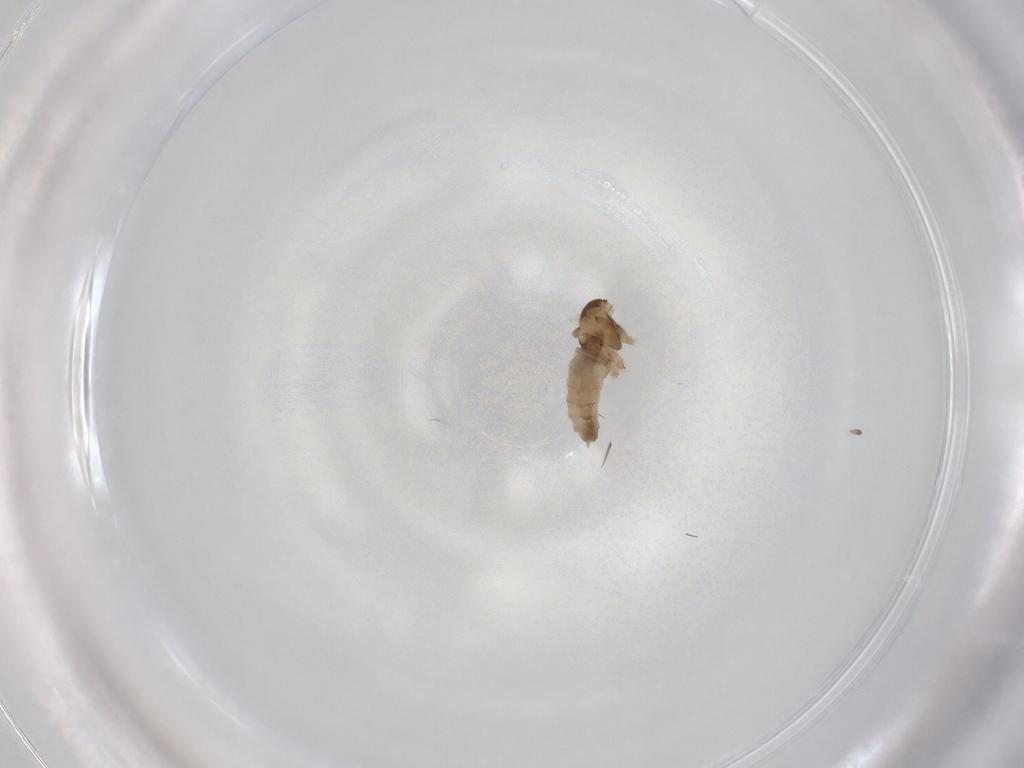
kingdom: Animalia
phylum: Arthropoda
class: Insecta
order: Diptera
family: Cecidomyiidae
